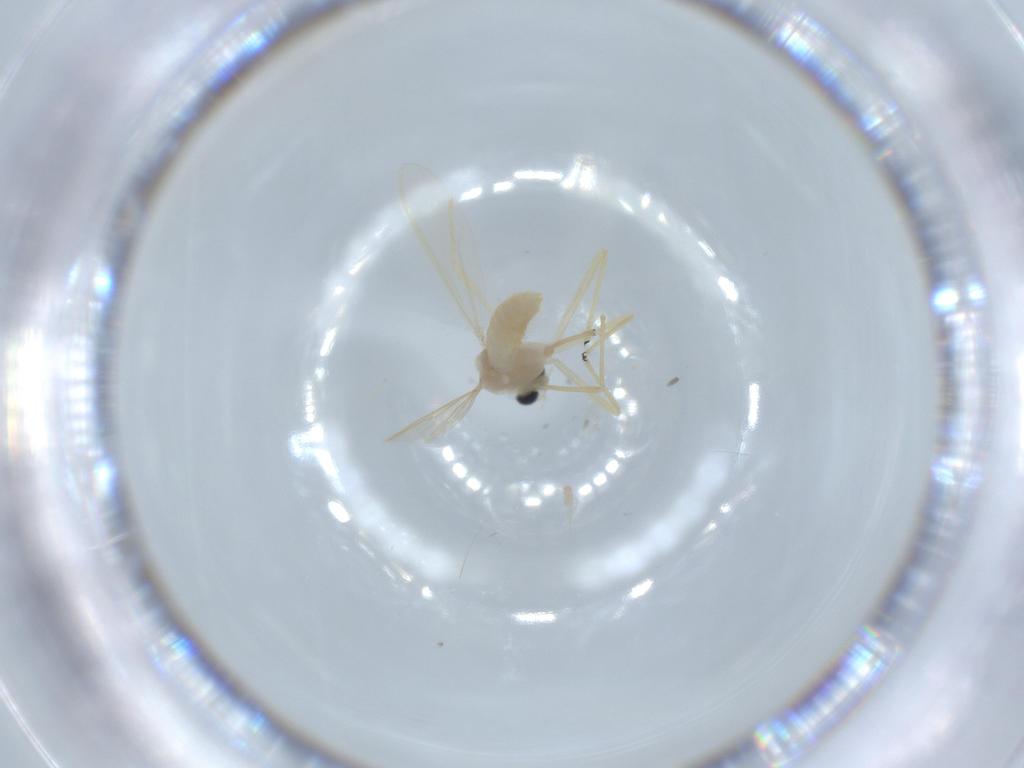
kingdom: Animalia
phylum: Arthropoda
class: Insecta
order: Diptera
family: Chironomidae
